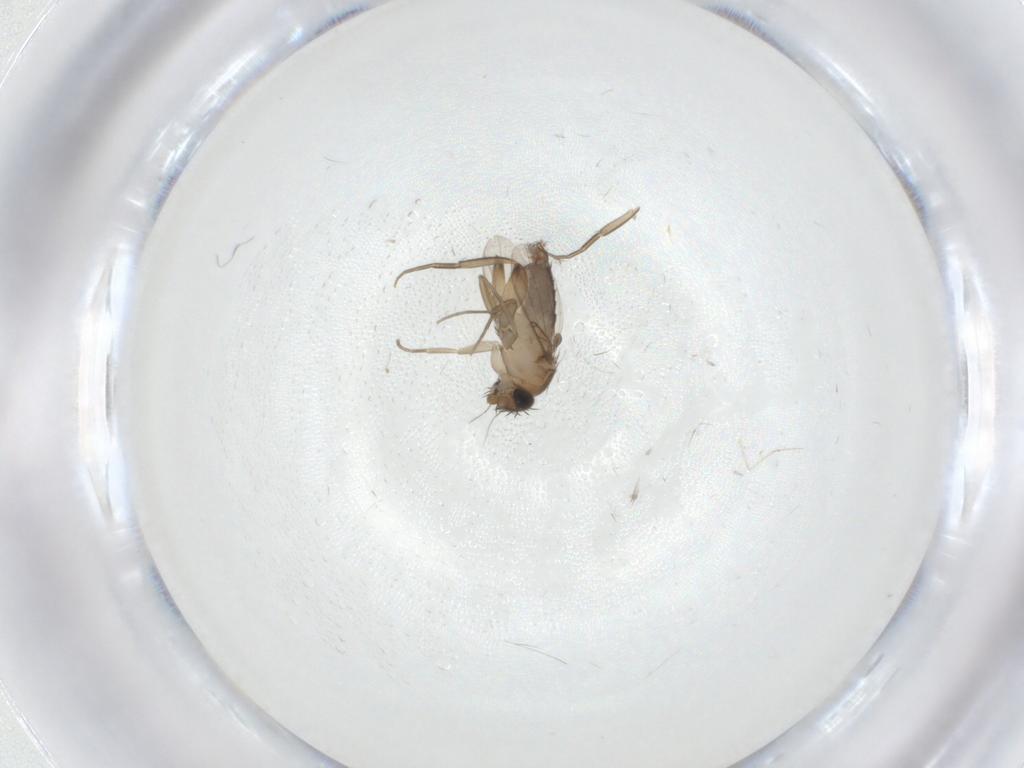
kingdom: Animalia
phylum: Arthropoda
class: Insecta
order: Diptera
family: Phoridae
